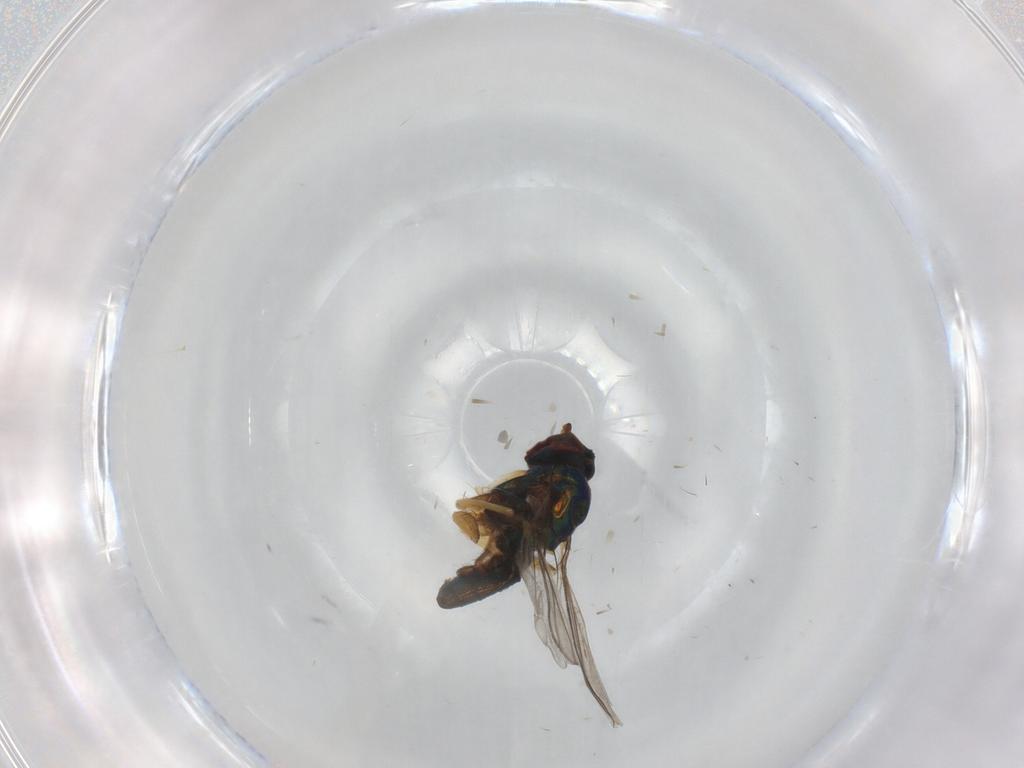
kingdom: Animalia
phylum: Arthropoda
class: Insecta
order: Diptera
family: Dolichopodidae
